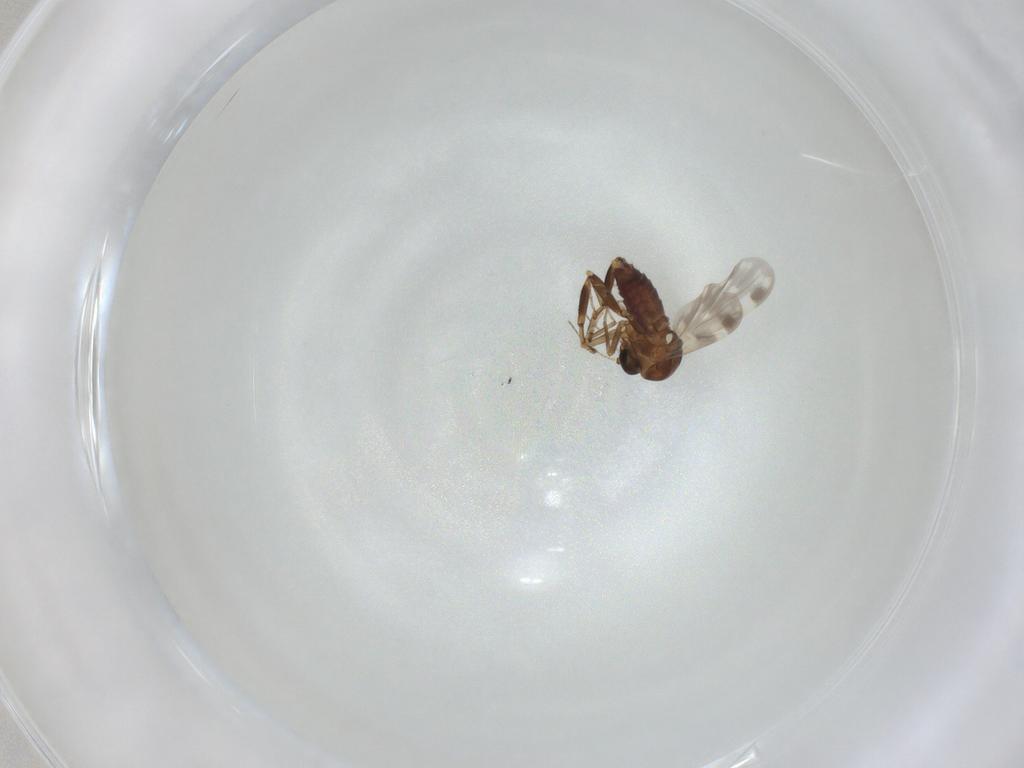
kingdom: Animalia
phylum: Arthropoda
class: Insecta
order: Diptera
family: Ceratopogonidae
